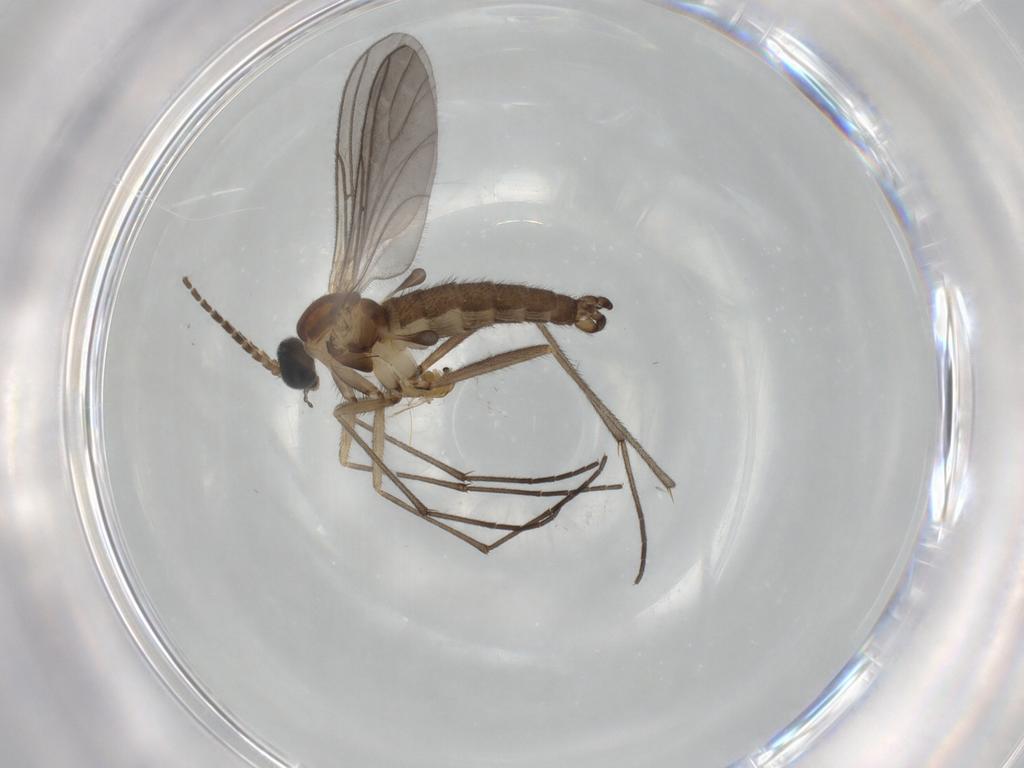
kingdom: Animalia
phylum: Arthropoda
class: Insecta
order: Diptera
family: Sciaridae
